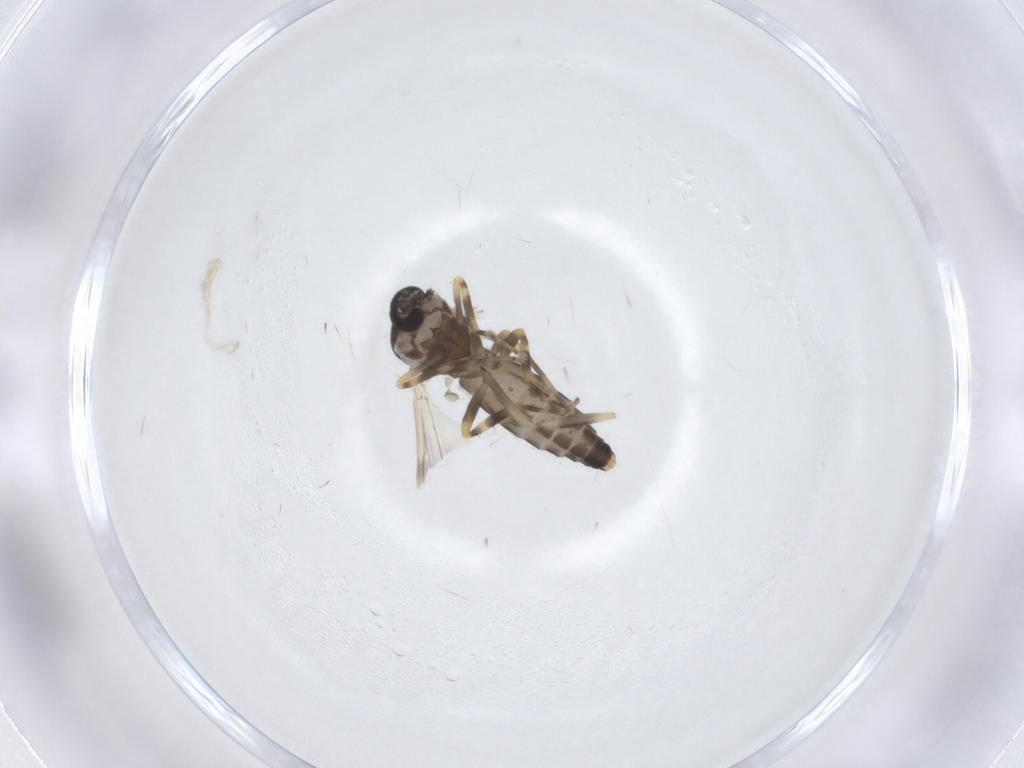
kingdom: Animalia
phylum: Arthropoda
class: Insecta
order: Diptera
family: Ceratopogonidae
